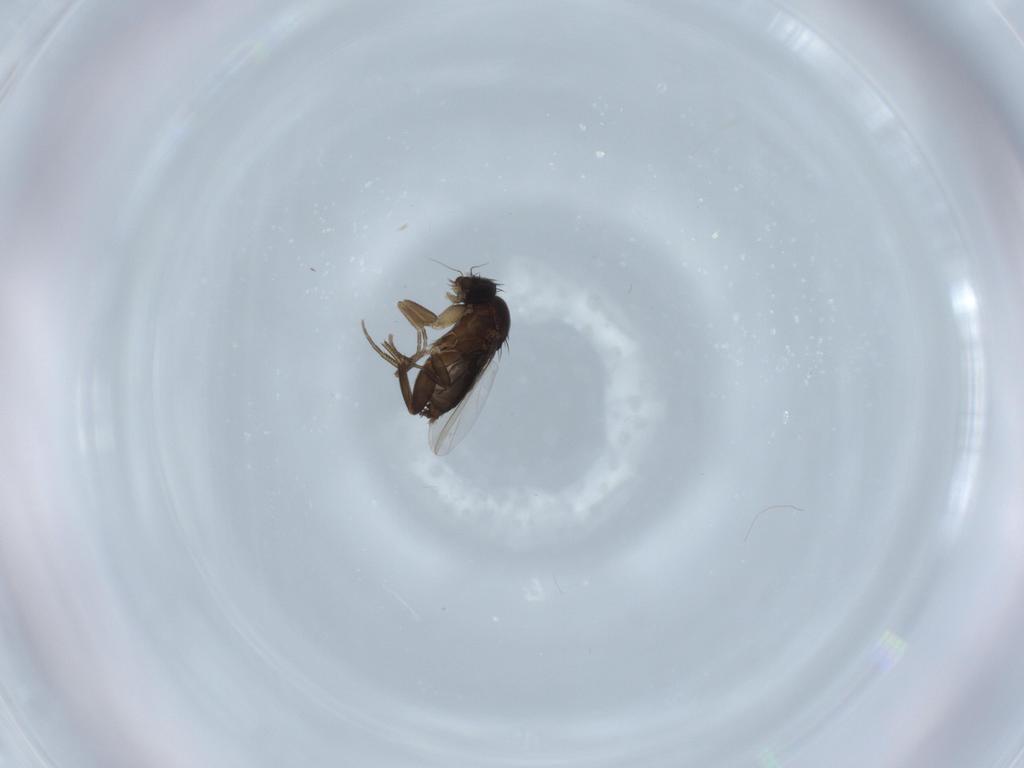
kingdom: Animalia
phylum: Arthropoda
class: Insecta
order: Diptera
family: Phoridae
